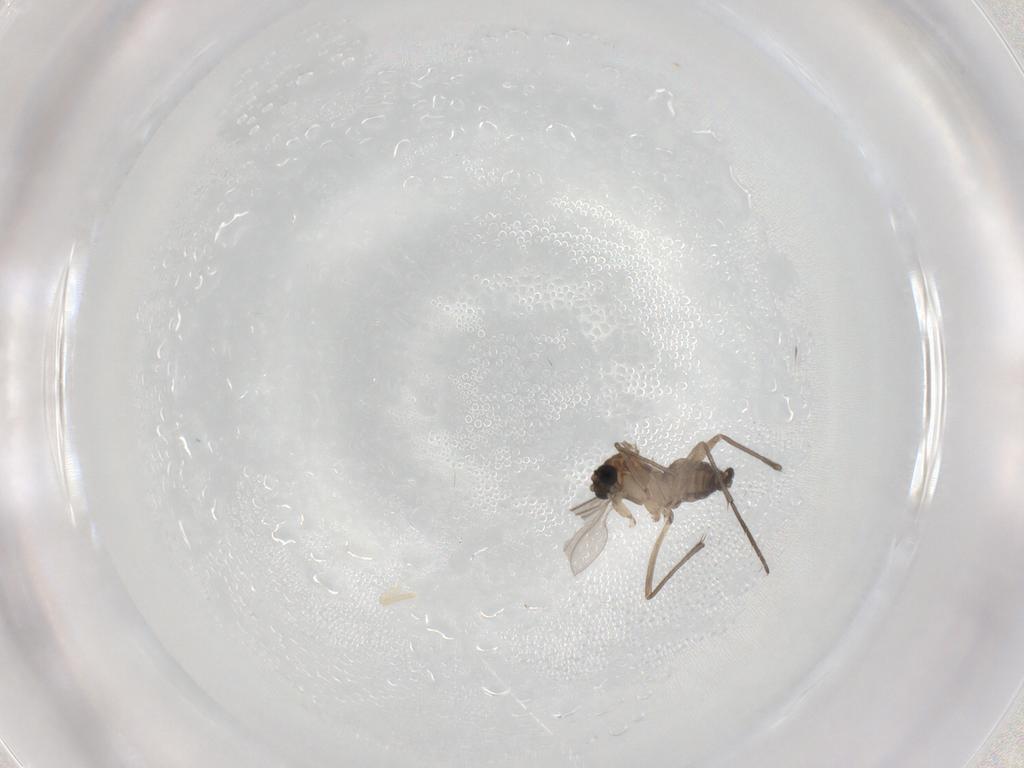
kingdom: Animalia
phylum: Arthropoda
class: Insecta
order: Diptera
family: Sciaridae
